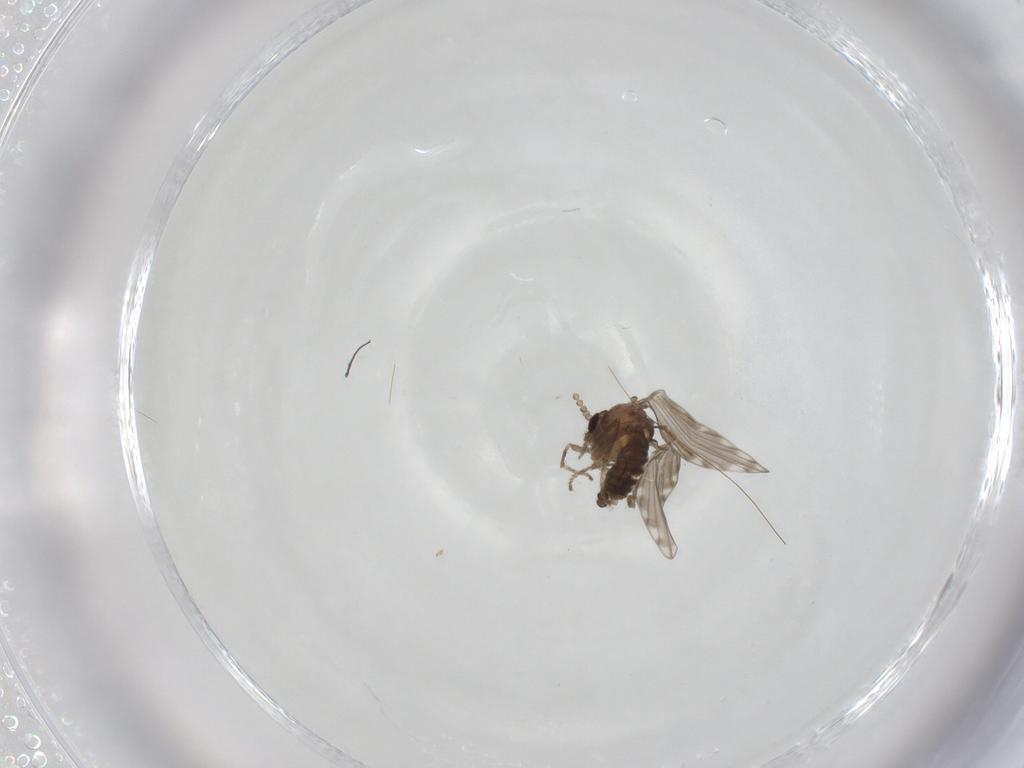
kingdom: Animalia
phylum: Arthropoda
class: Insecta
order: Diptera
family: Psychodidae
